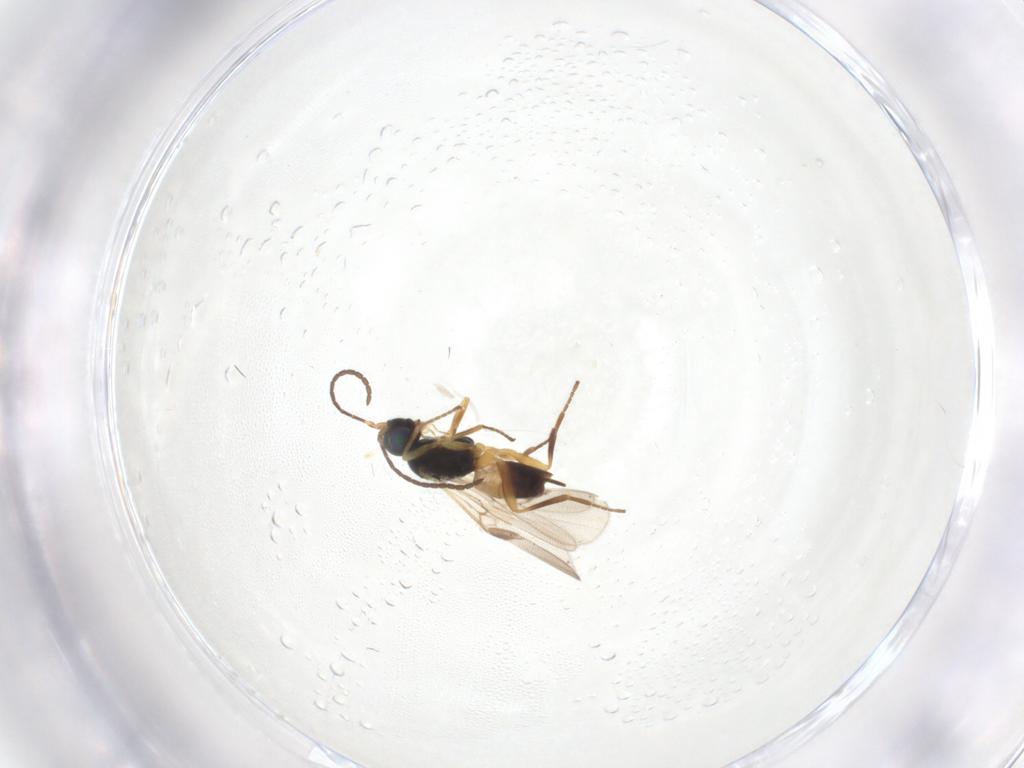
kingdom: Animalia
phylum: Arthropoda
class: Insecta
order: Hymenoptera
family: Braconidae
